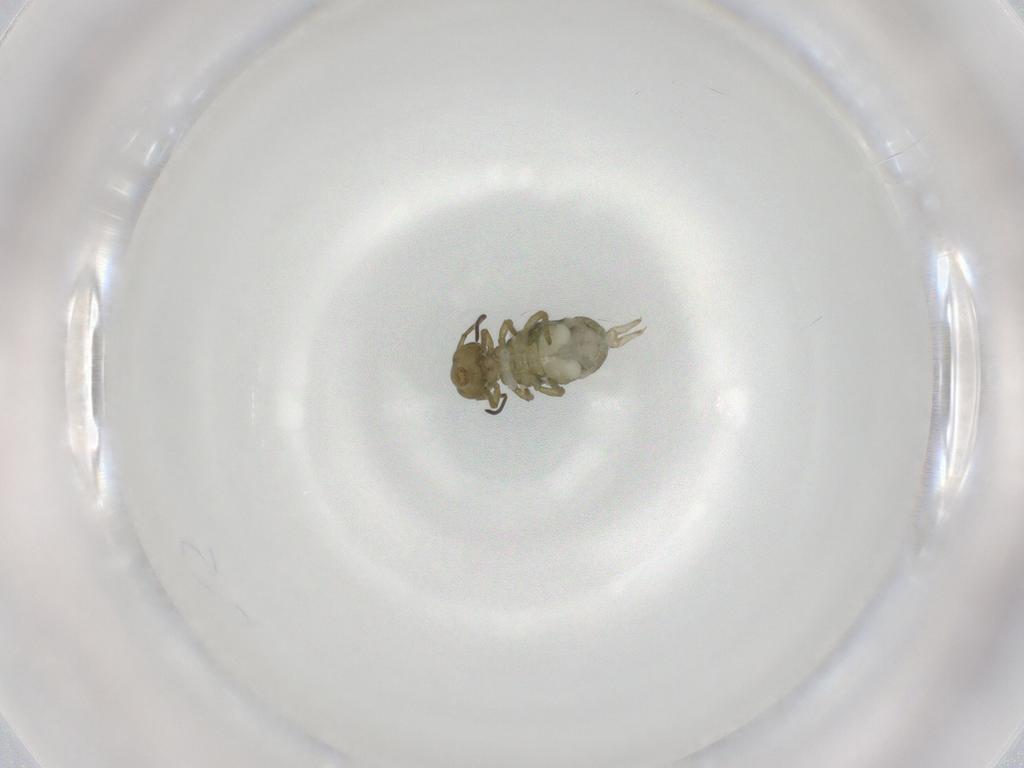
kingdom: Animalia
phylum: Arthropoda
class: Collembola
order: Symphypleona
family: Sminthuridae
